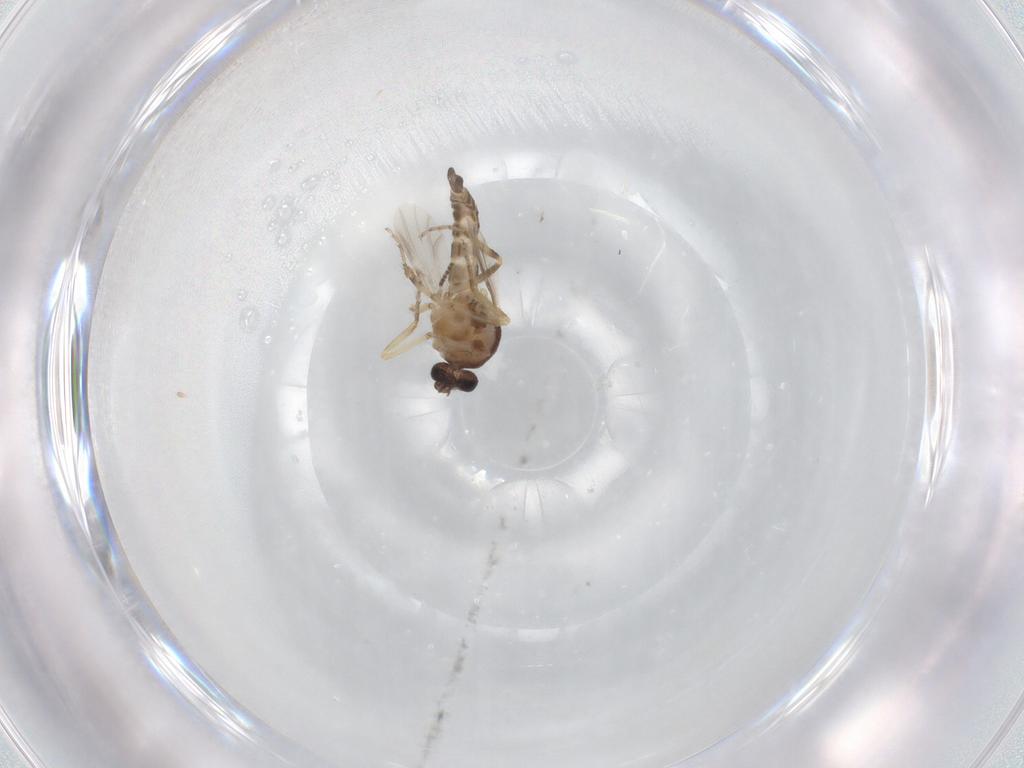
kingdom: Animalia
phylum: Arthropoda
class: Insecta
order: Diptera
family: Ceratopogonidae
